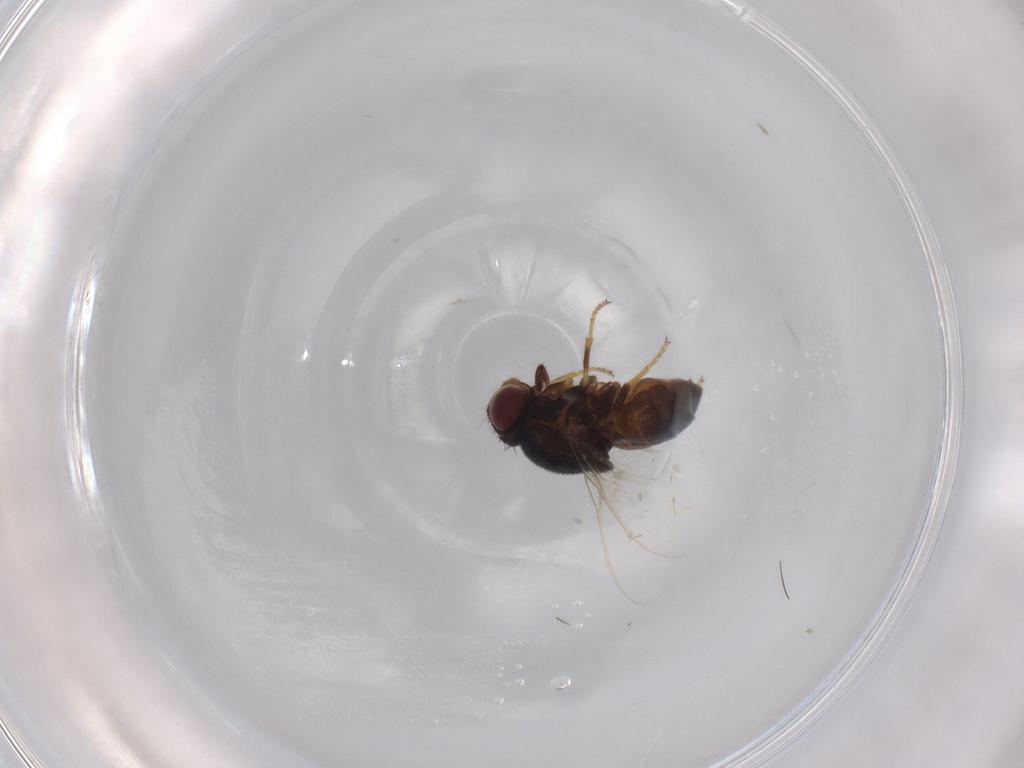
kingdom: Animalia
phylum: Arthropoda
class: Insecta
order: Diptera
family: Chloropidae
